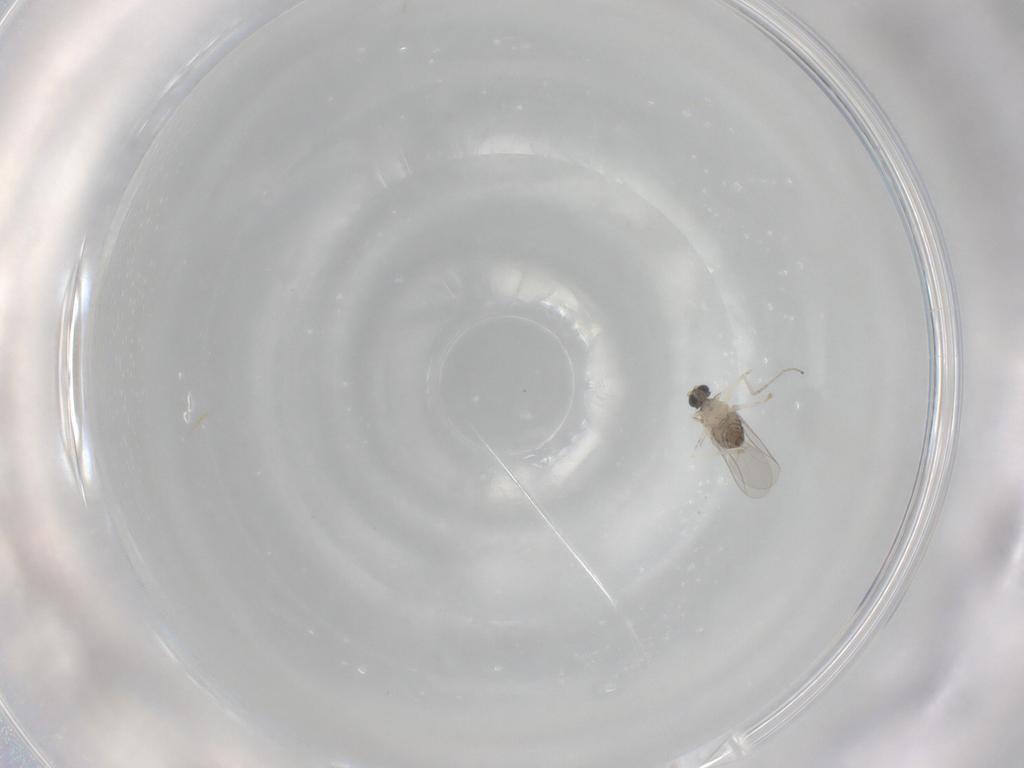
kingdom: Animalia
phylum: Arthropoda
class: Insecta
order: Diptera
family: Cecidomyiidae
